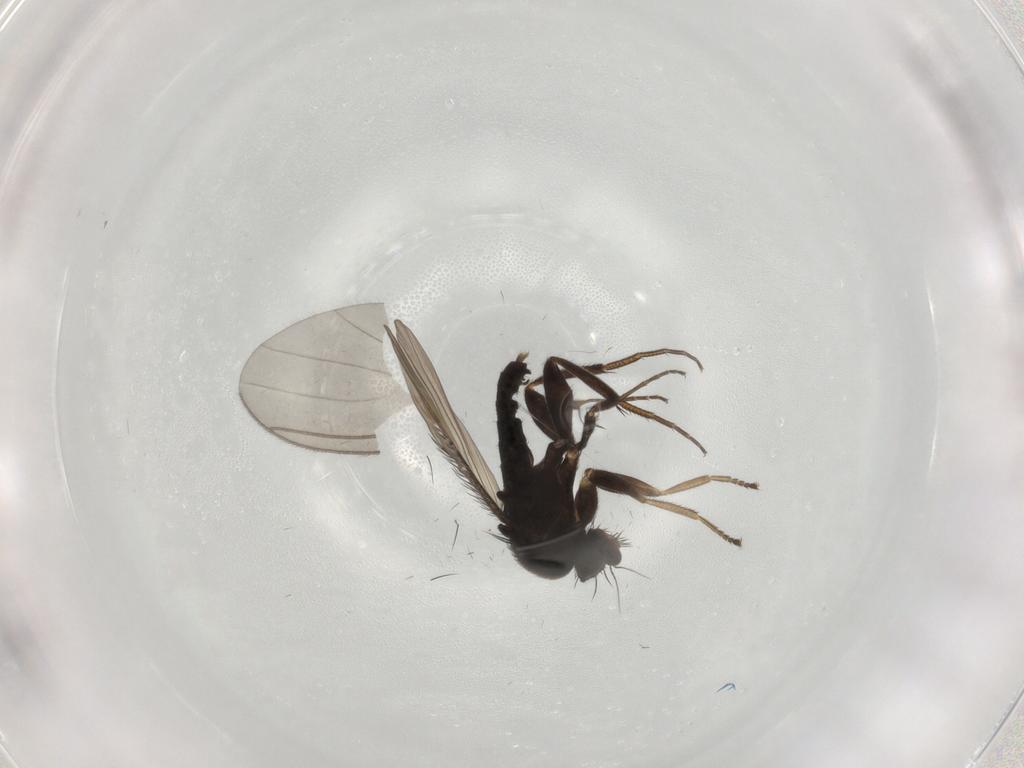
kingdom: Animalia
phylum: Arthropoda
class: Insecta
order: Diptera
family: Phoridae
